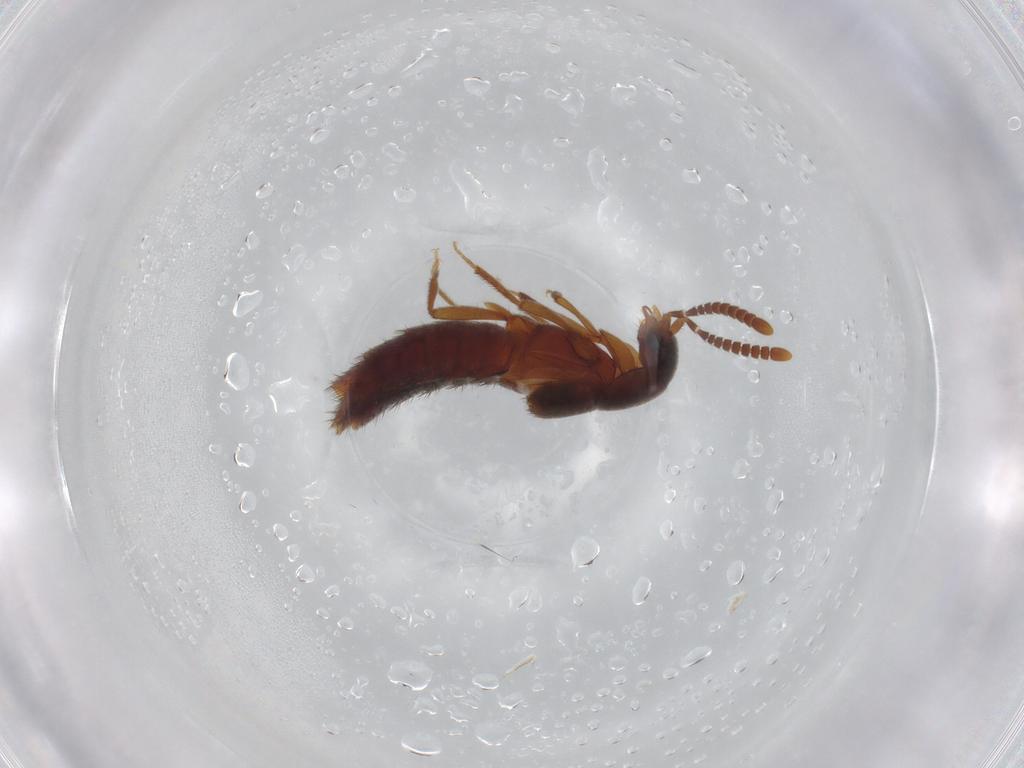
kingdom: Animalia
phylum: Arthropoda
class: Insecta
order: Coleoptera
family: Staphylinidae
